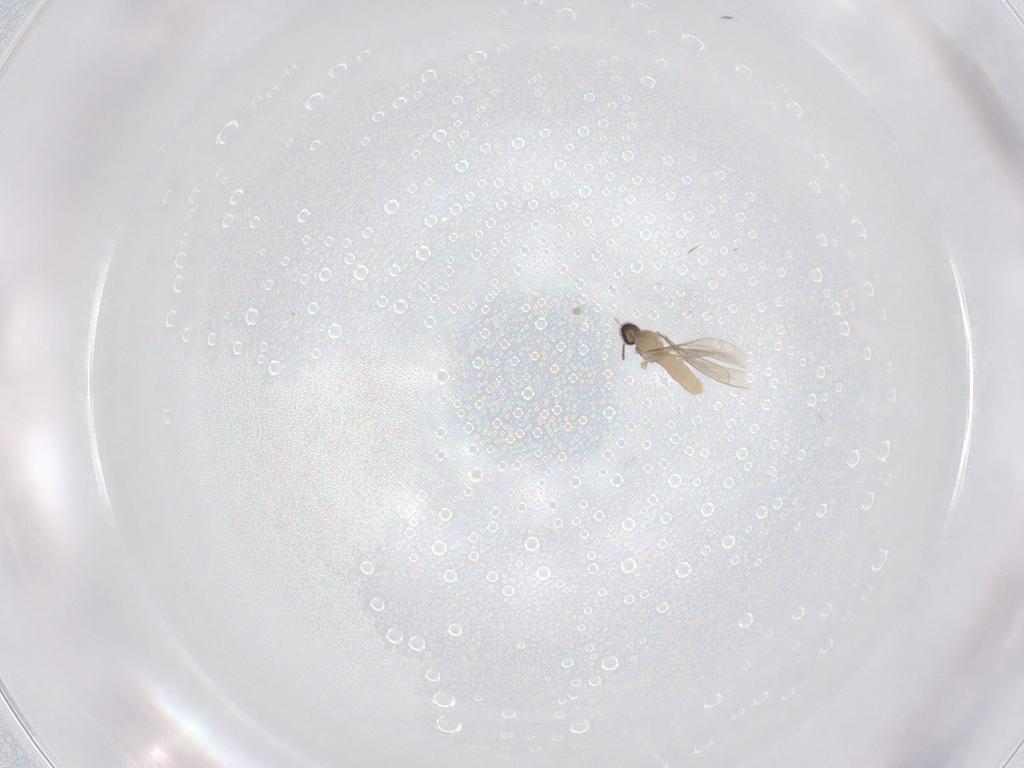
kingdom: Animalia
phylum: Arthropoda
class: Insecta
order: Diptera
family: Cecidomyiidae
